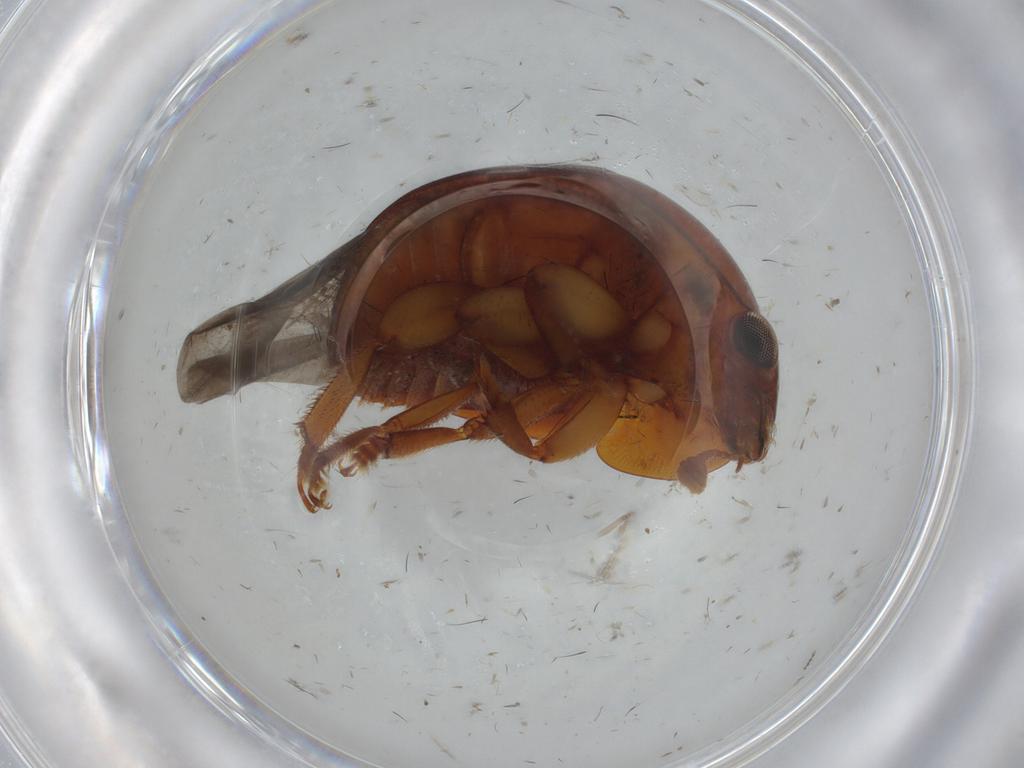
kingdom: Animalia
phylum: Arthropoda
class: Insecta
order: Coleoptera
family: Nitidulidae
